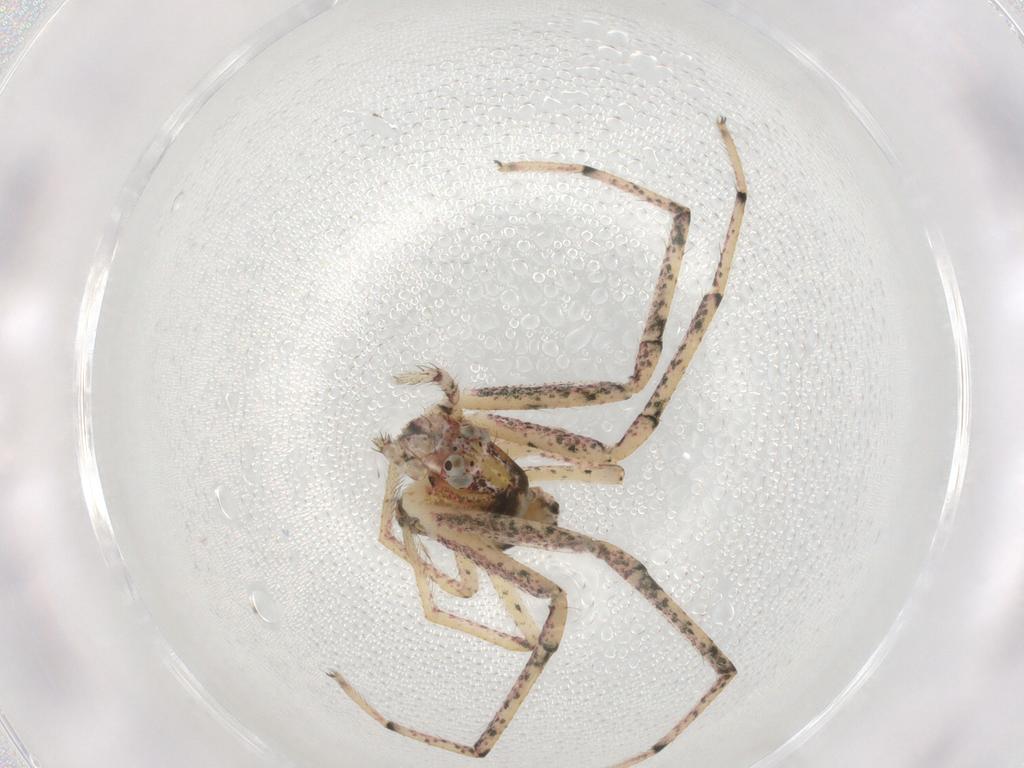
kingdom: Animalia
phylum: Arthropoda
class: Arachnida
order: Araneae
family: Thomisidae
